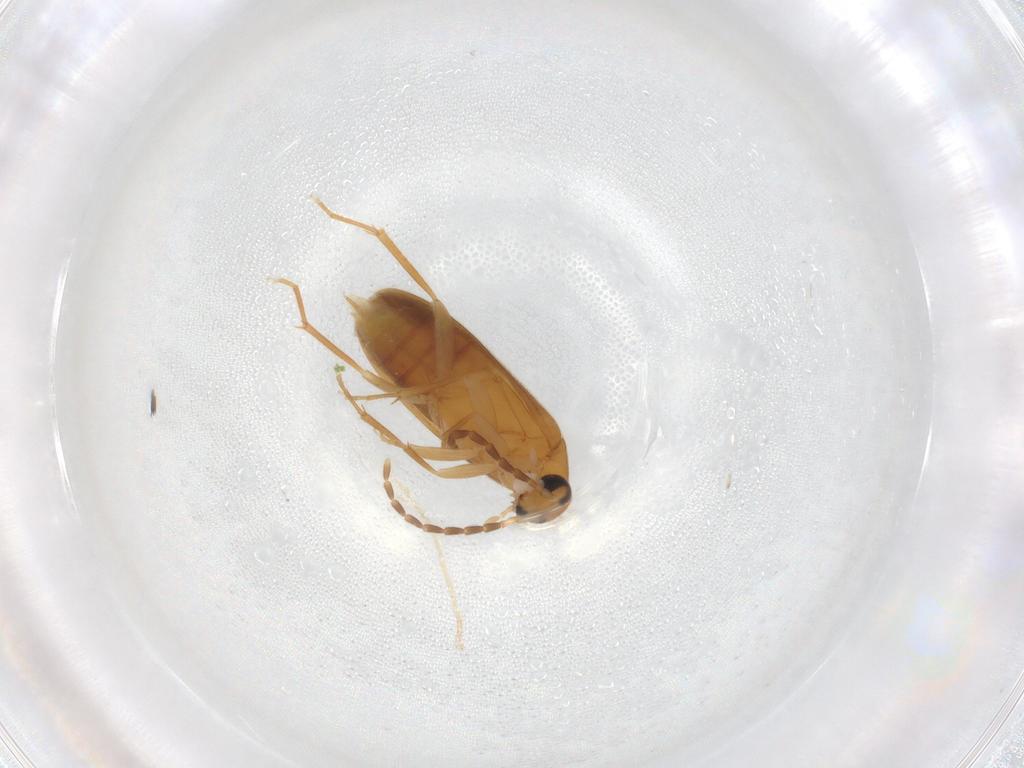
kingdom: Animalia
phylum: Arthropoda
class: Insecta
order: Coleoptera
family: Scraptiidae
